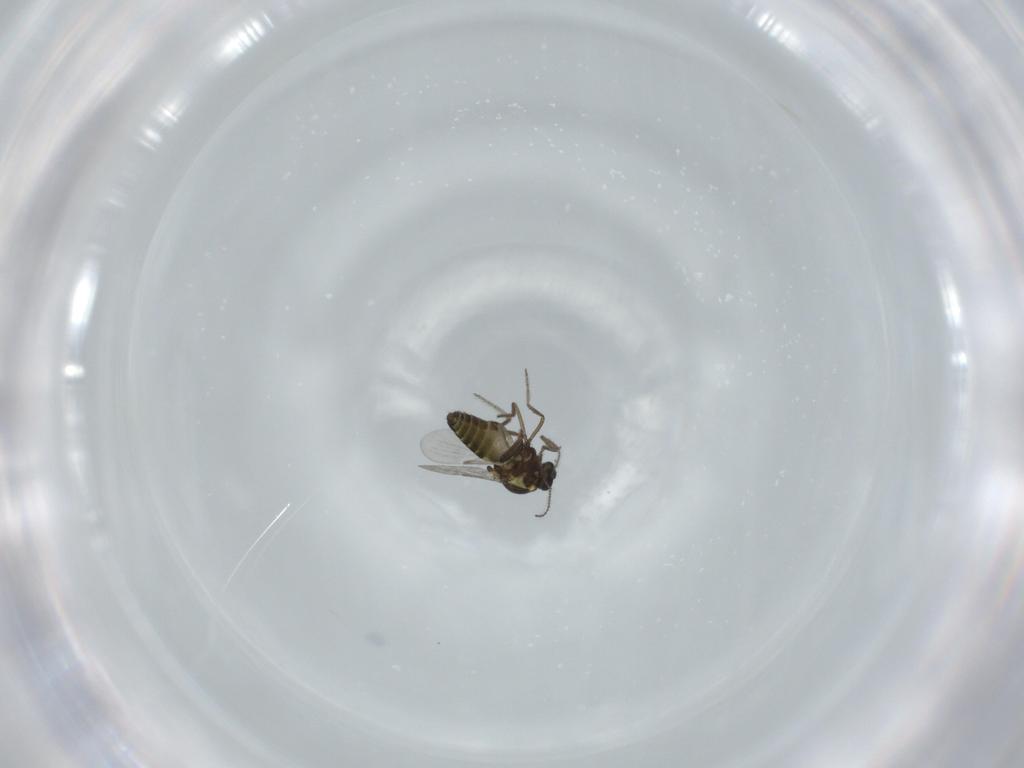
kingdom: Animalia
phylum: Arthropoda
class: Insecta
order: Diptera
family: Ceratopogonidae
